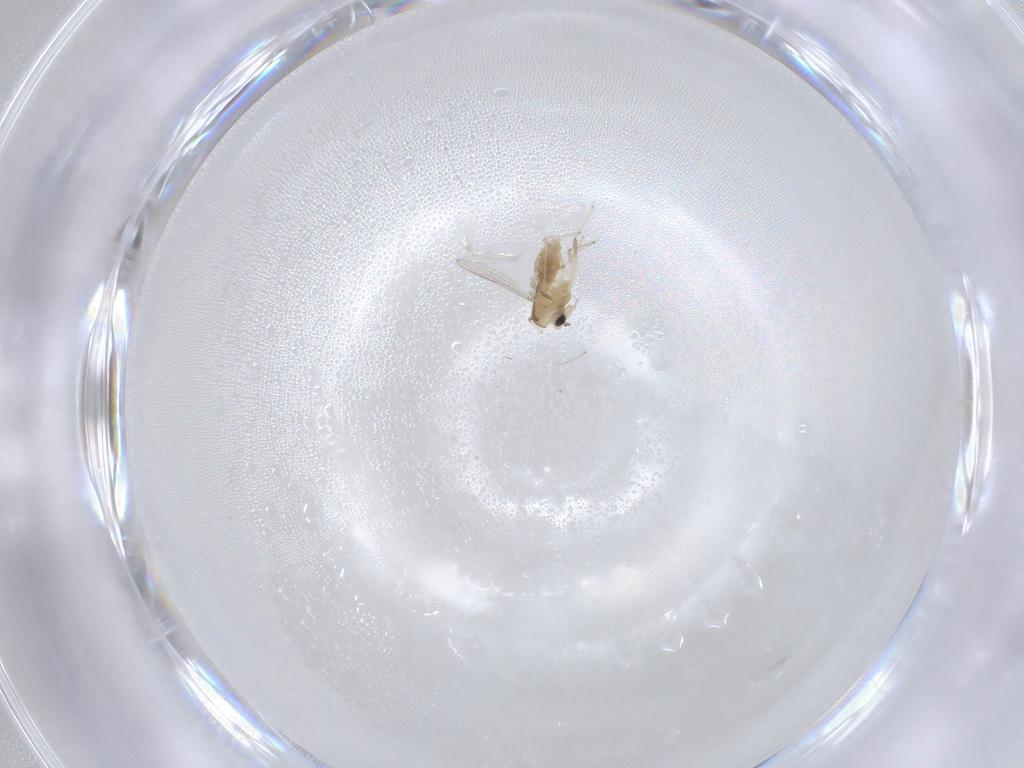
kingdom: Animalia
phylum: Arthropoda
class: Insecta
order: Diptera
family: Chironomidae
